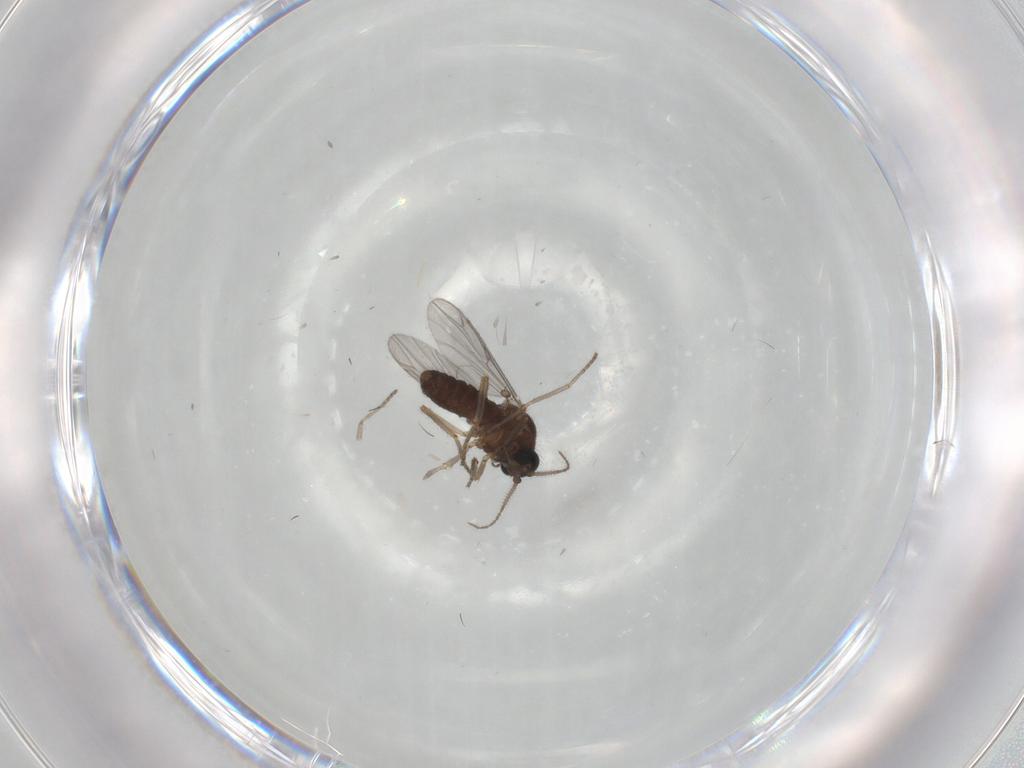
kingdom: Animalia
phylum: Arthropoda
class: Insecta
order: Diptera
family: Ceratopogonidae
